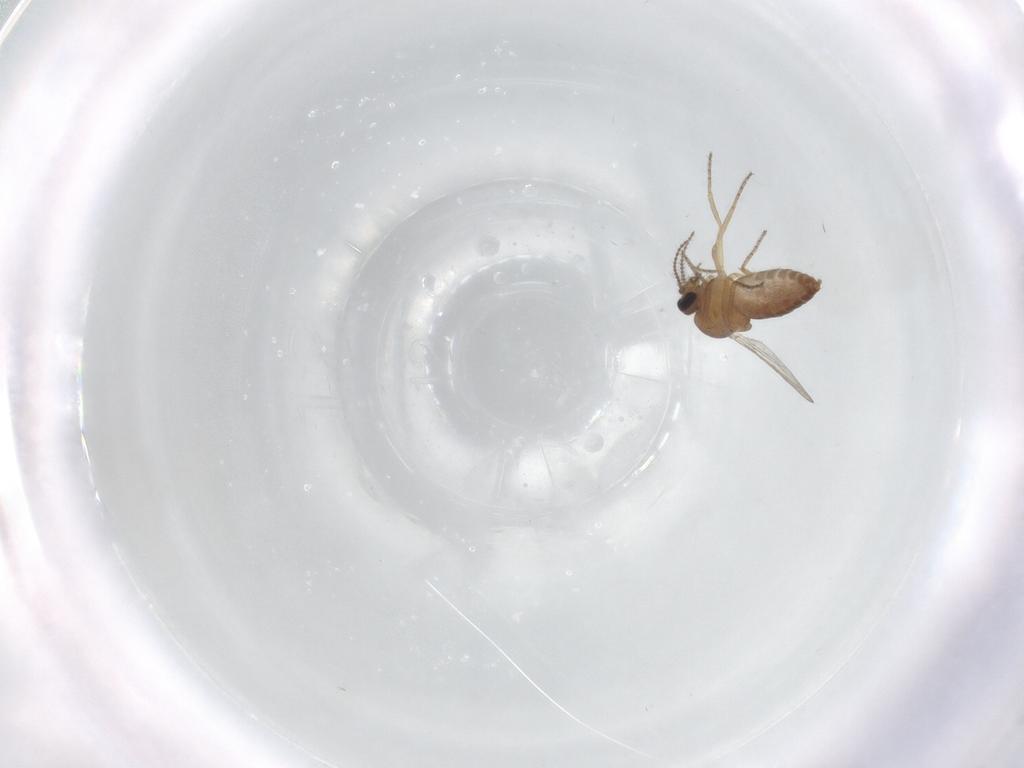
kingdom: Animalia
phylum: Arthropoda
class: Insecta
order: Diptera
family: Ceratopogonidae
